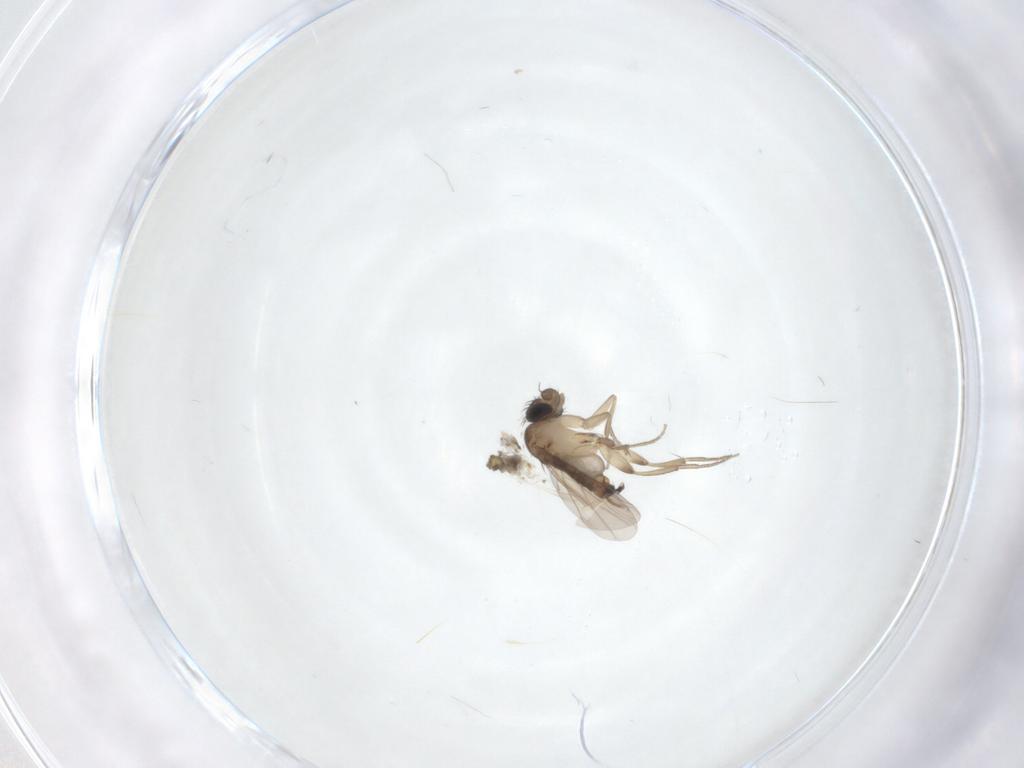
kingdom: Animalia
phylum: Arthropoda
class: Insecta
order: Diptera
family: Phoridae
